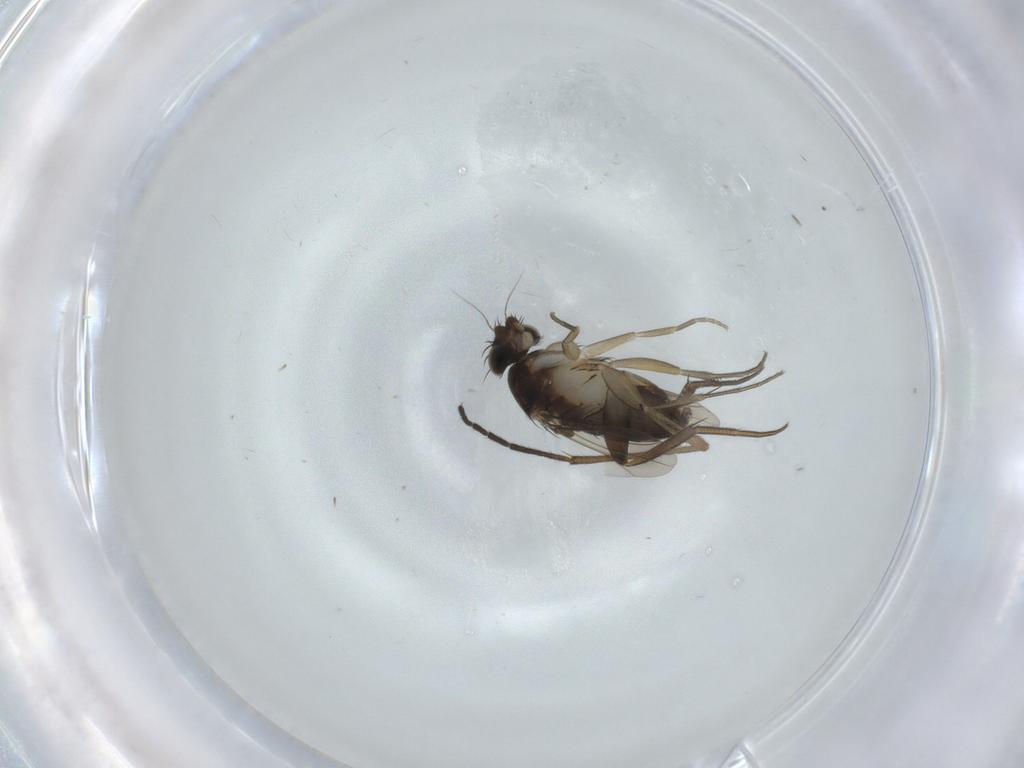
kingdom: Animalia
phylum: Arthropoda
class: Insecta
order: Diptera
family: Phoridae
